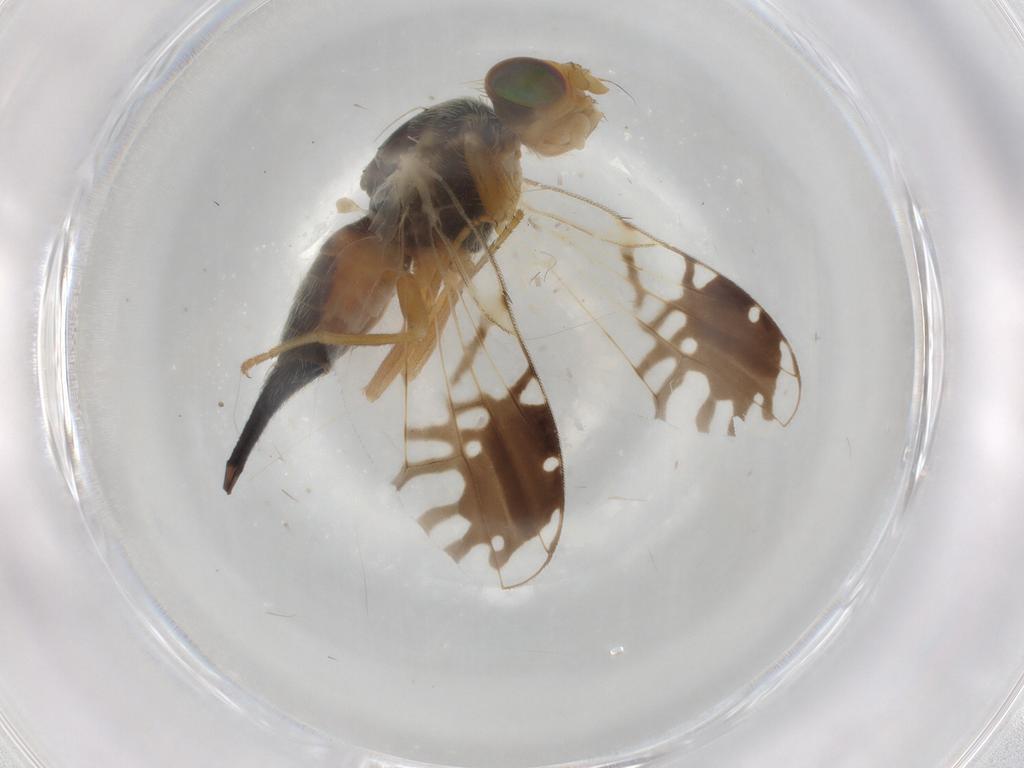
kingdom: Animalia
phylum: Arthropoda
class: Insecta
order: Diptera
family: Sciaridae
